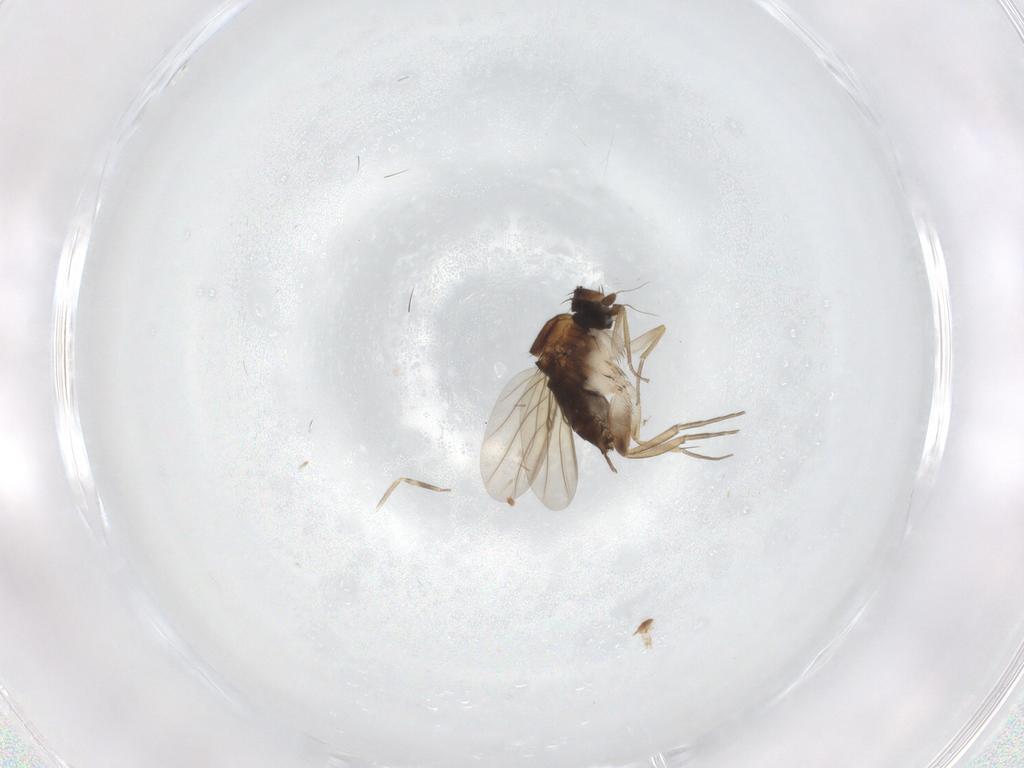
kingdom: Animalia
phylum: Arthropoda
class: Insecta
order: Diptera
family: Phoridae
